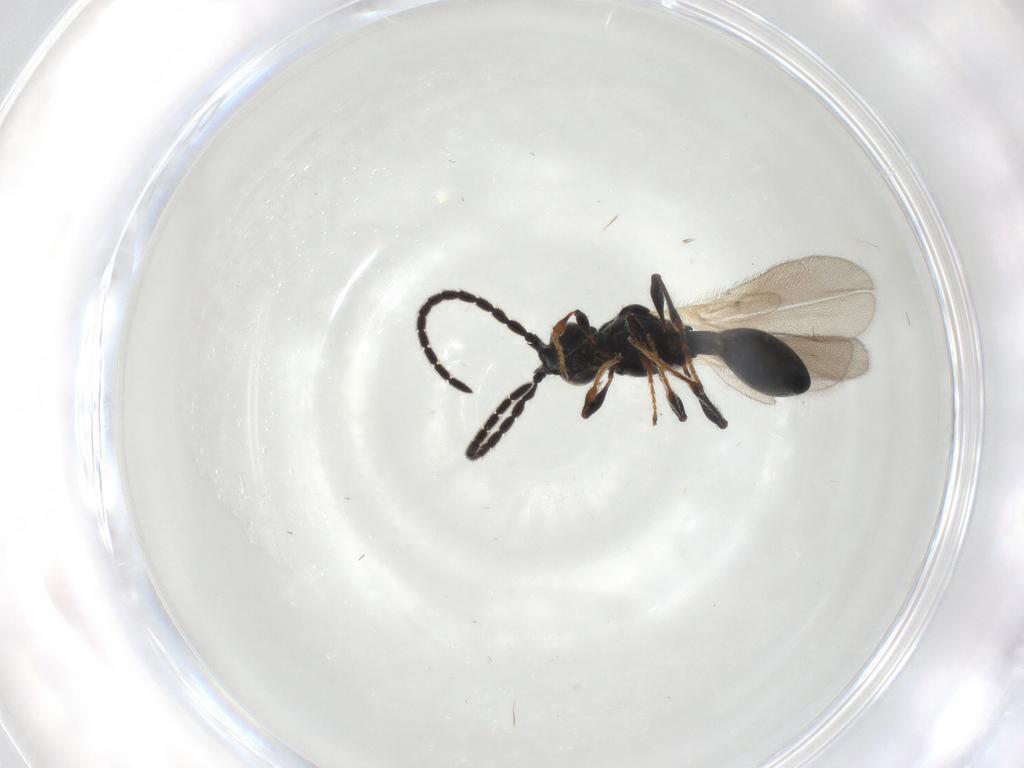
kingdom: Animalia
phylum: Arthropoda
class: Insecta
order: Hymenoptera
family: Diapriidae
